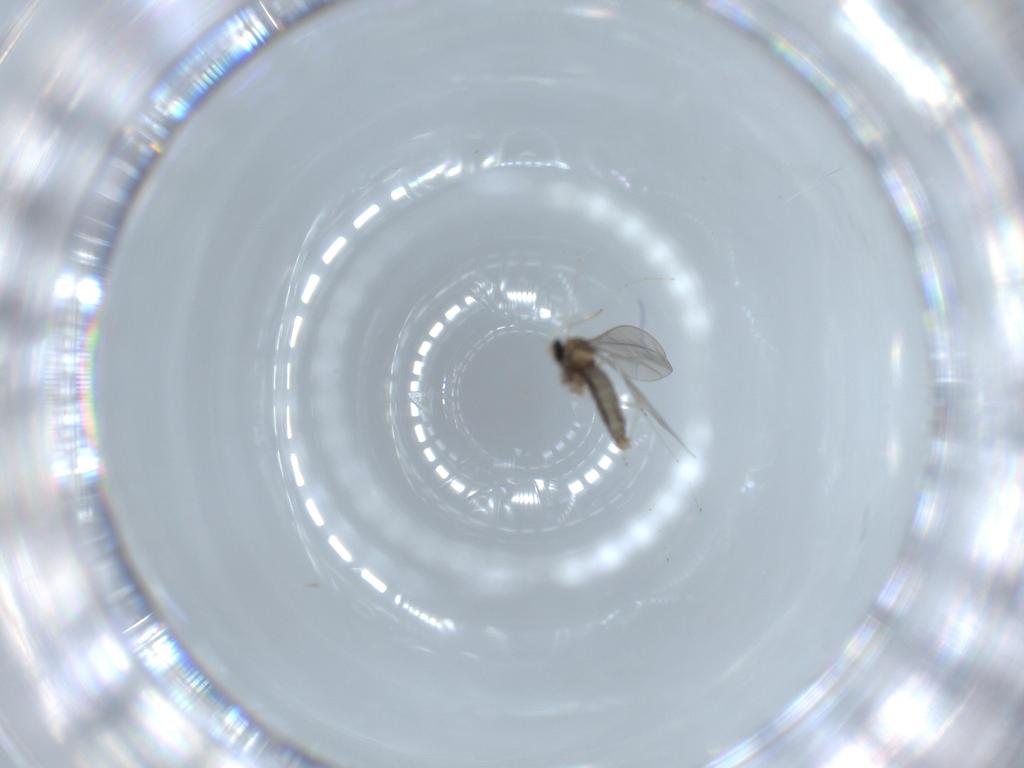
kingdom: Animalia
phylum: Arthropoda
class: Insecta
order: Diptera
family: Cecidomyiidae
